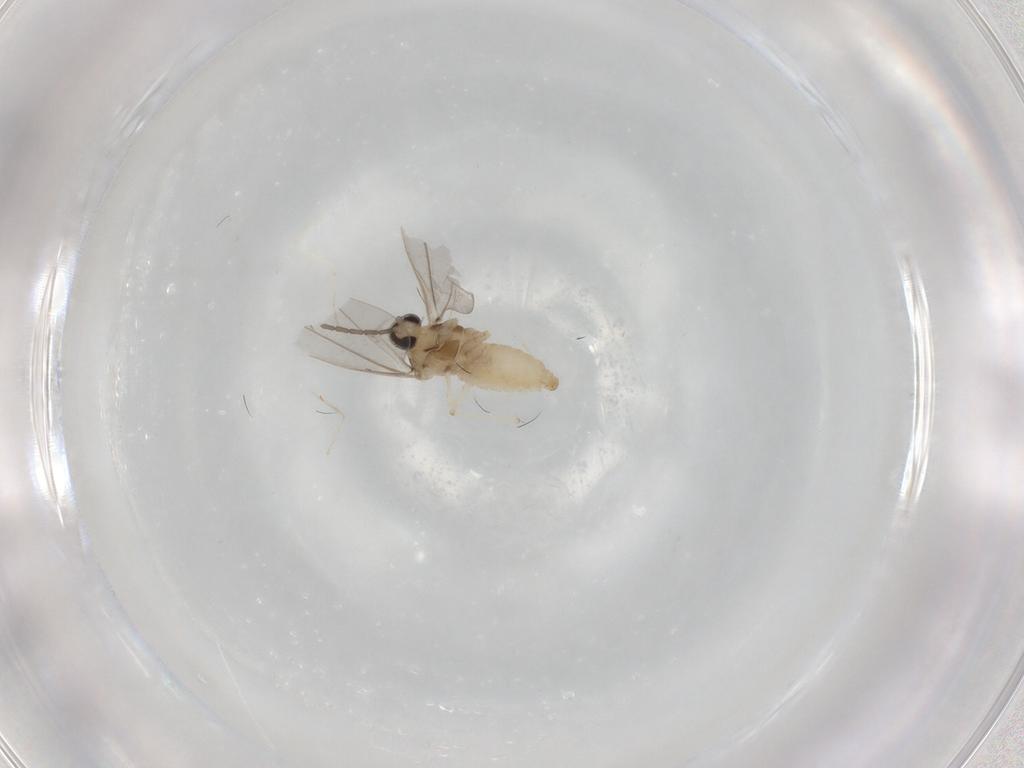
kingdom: Animalia
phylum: Arthropoda
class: Insecta
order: Diptera
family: Cecidomyiidae
